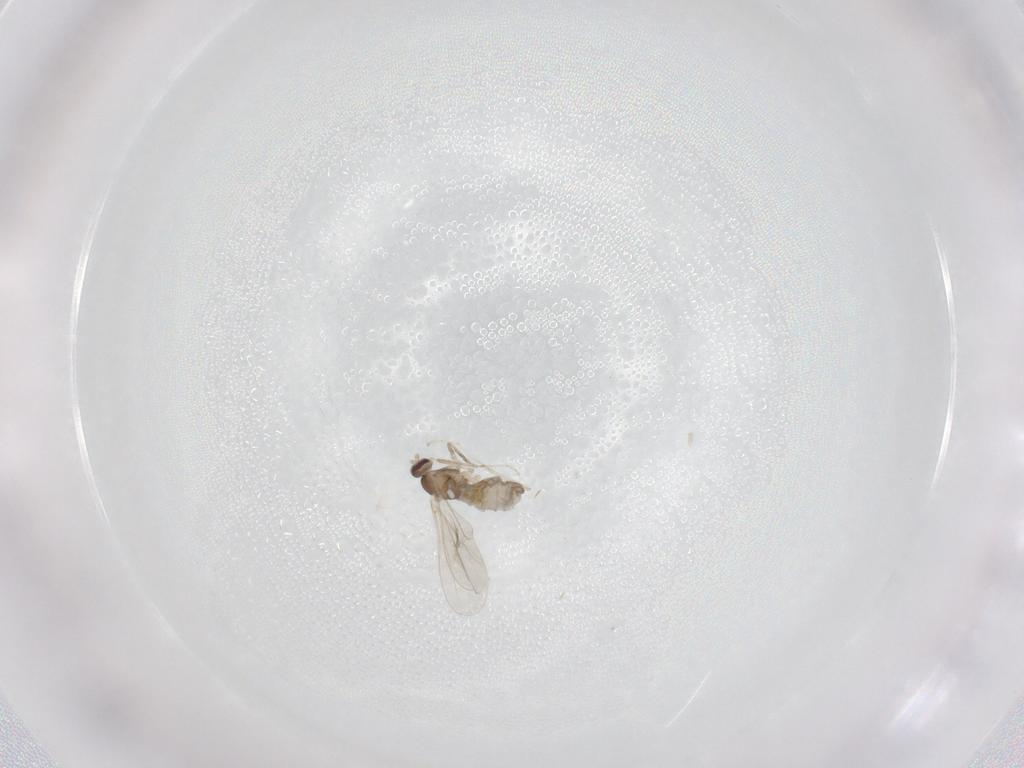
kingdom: Animalia
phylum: Arthropoda
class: Insecta
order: Diptera
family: Cecidomyiidae
